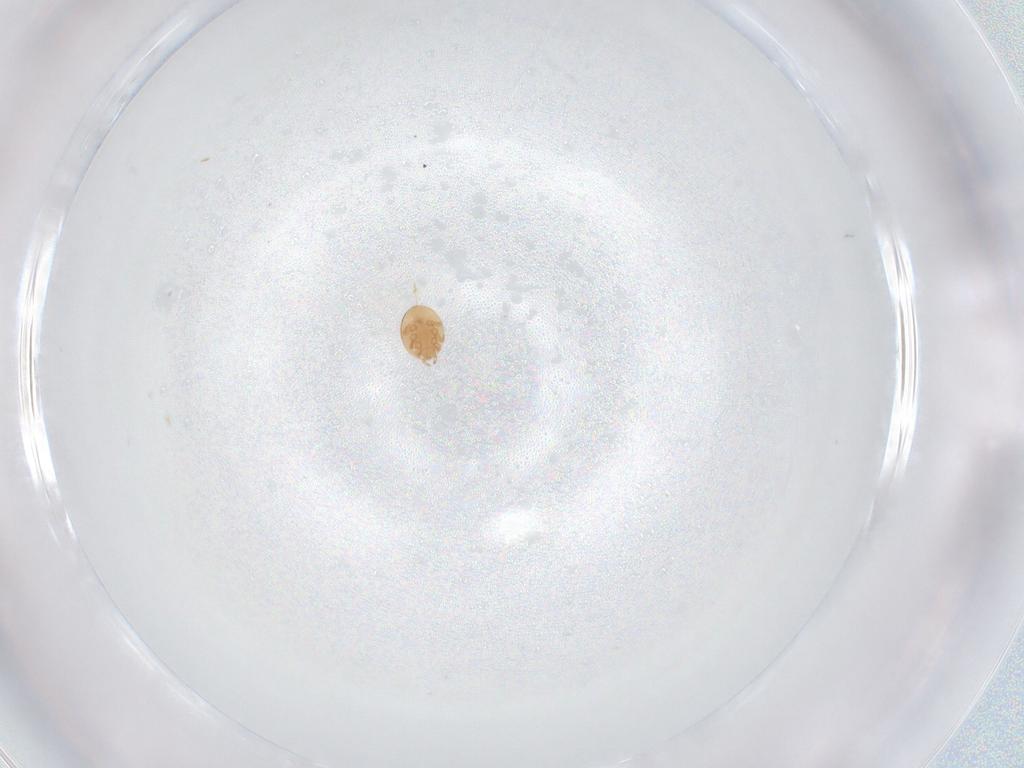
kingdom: Animalia
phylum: Arthropoda
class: Arachnida
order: Mesostigmata
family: Trematuridae
